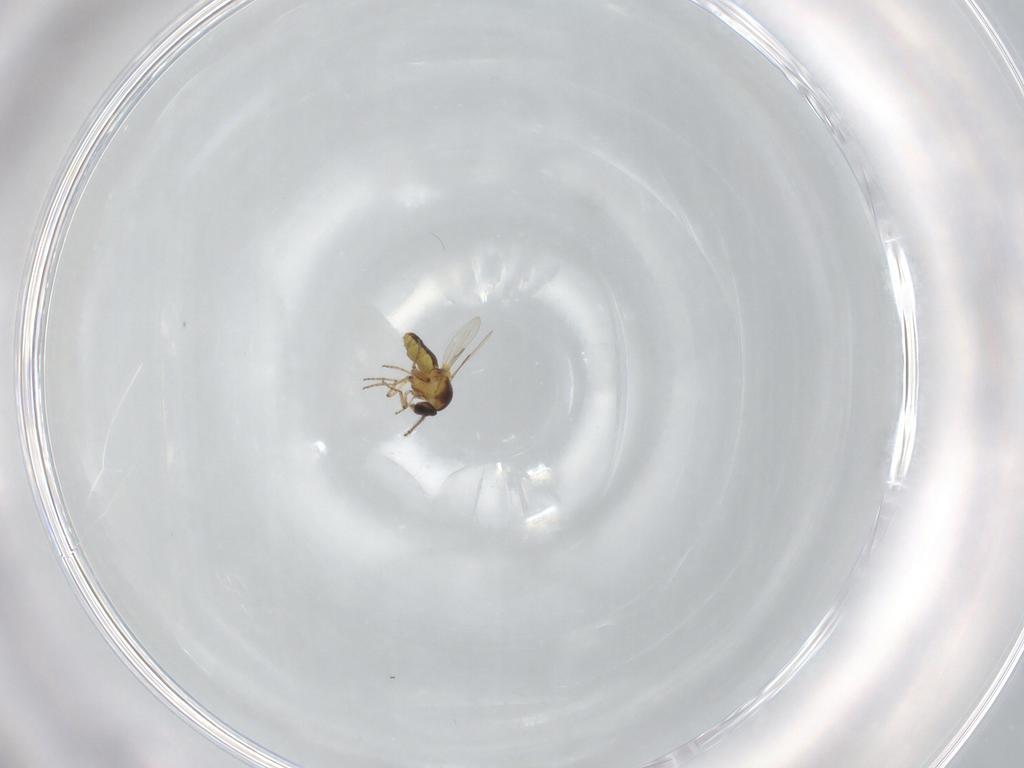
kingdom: Animalia
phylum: Arthropoda
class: Insecta
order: Diptera
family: Ceratopogonidae
